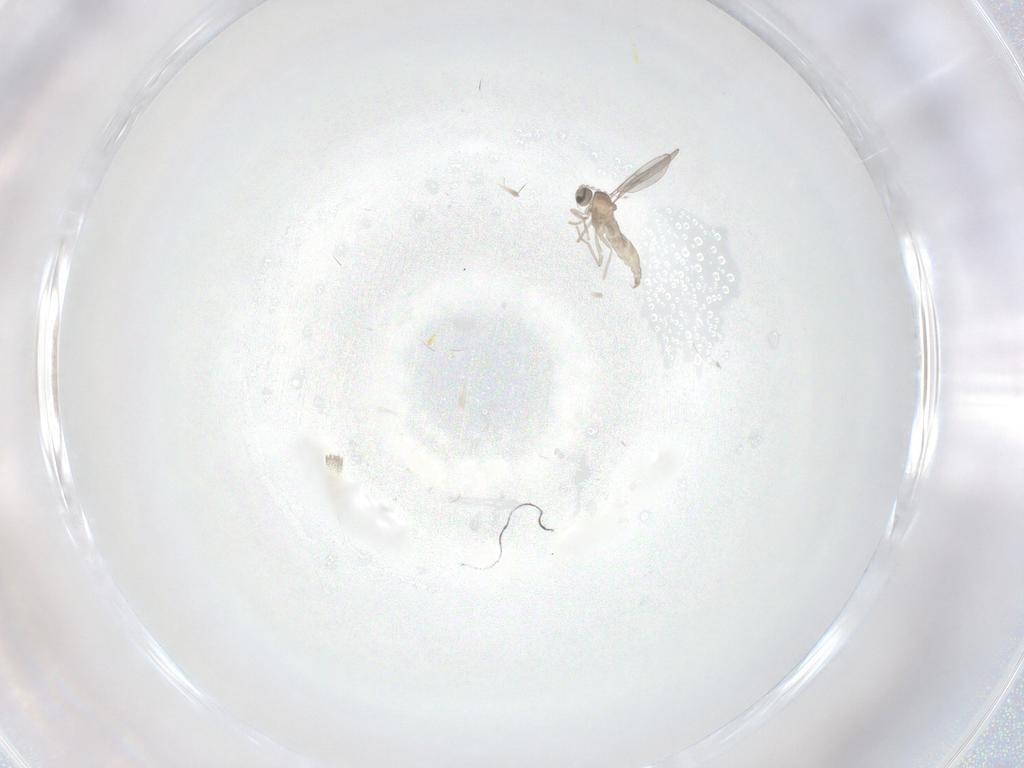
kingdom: Animalia
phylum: Arthropoda
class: Insecta
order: Diptera
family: Cecidomyiidae
